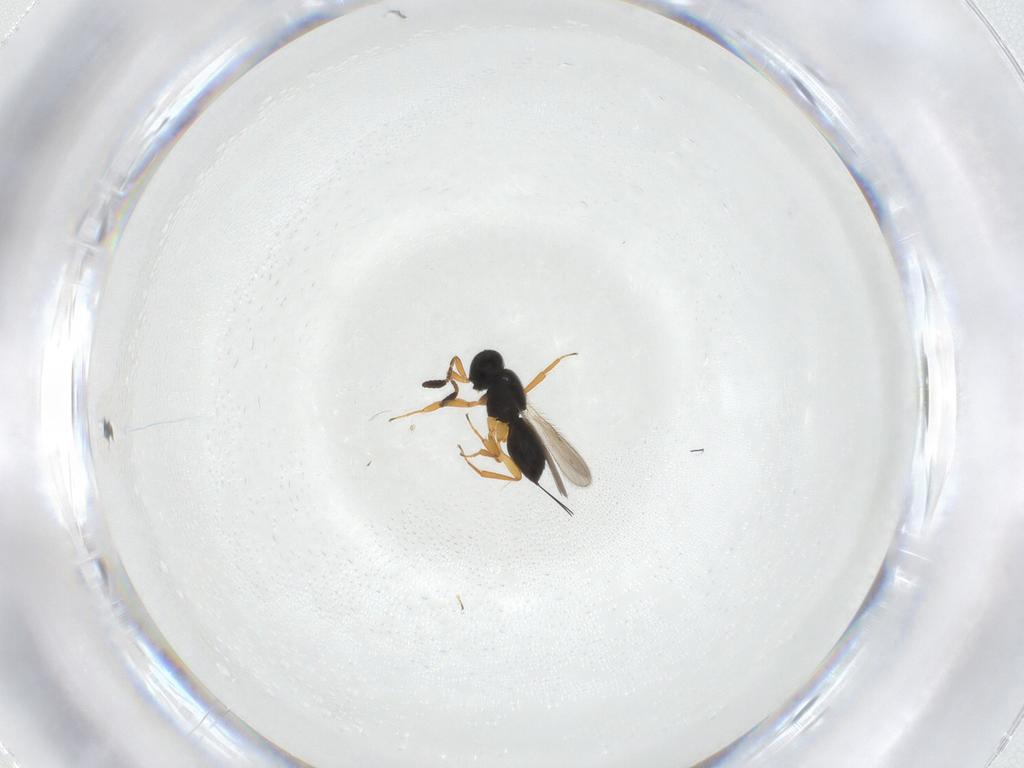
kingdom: Animalia
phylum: Arthropoda
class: Insecta
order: Hymenoptera
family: Scelionidae
